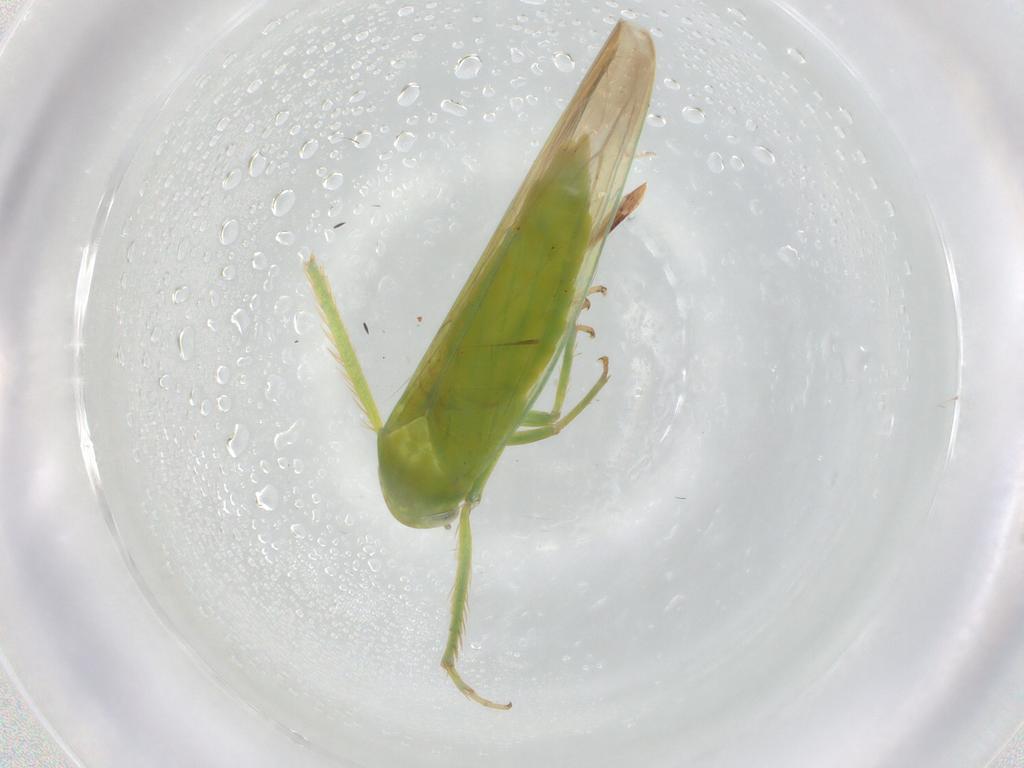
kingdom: Animalia
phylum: Arthropoda
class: Insecta
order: Hemiptera
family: Cicadellidae
